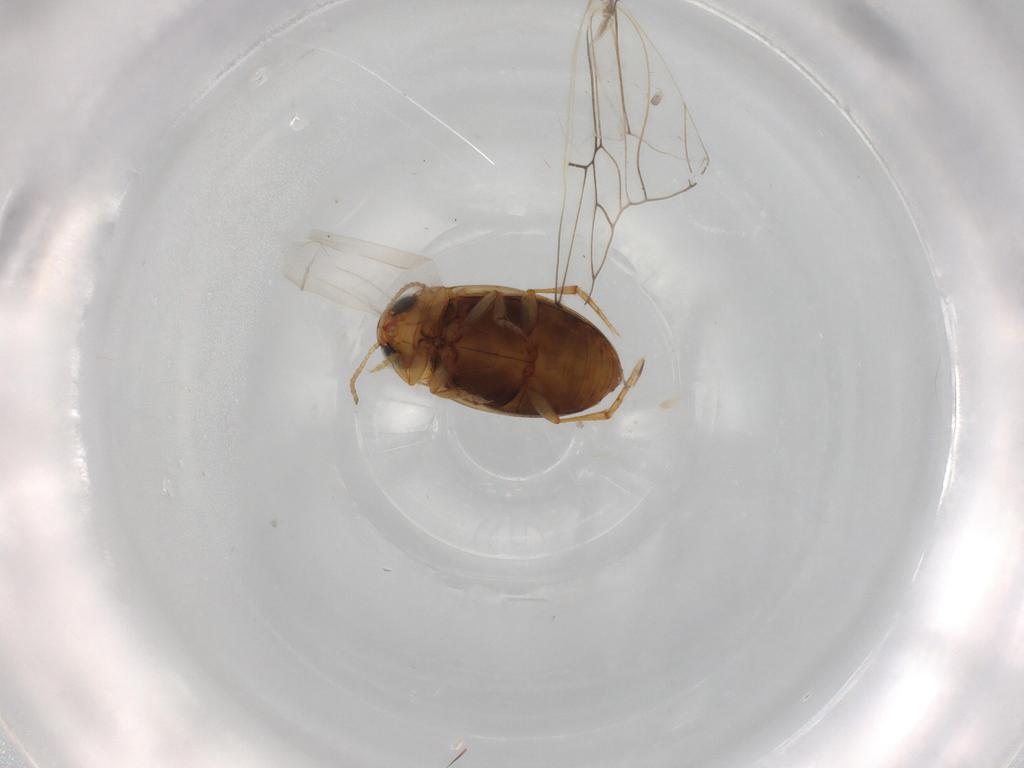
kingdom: Animalia
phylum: Arthropoda
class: Insecta
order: Coleoptera
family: Dytiscidae
